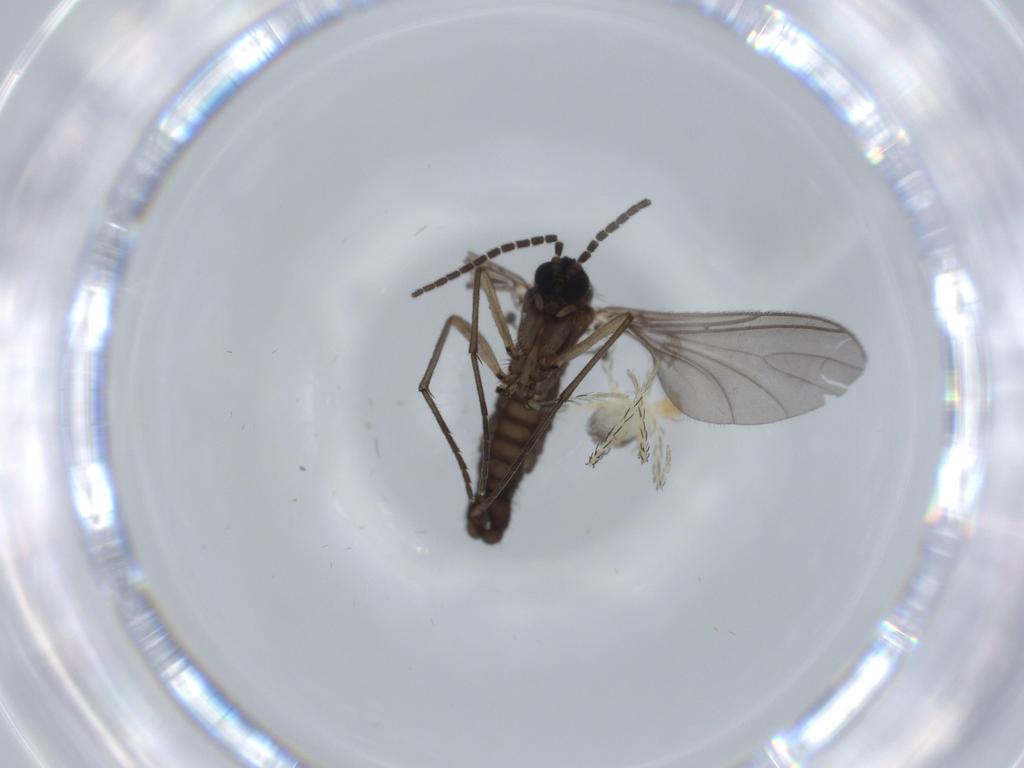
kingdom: Animalia
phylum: Arthropoda
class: Insecta
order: Diptera
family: Sciaridae
